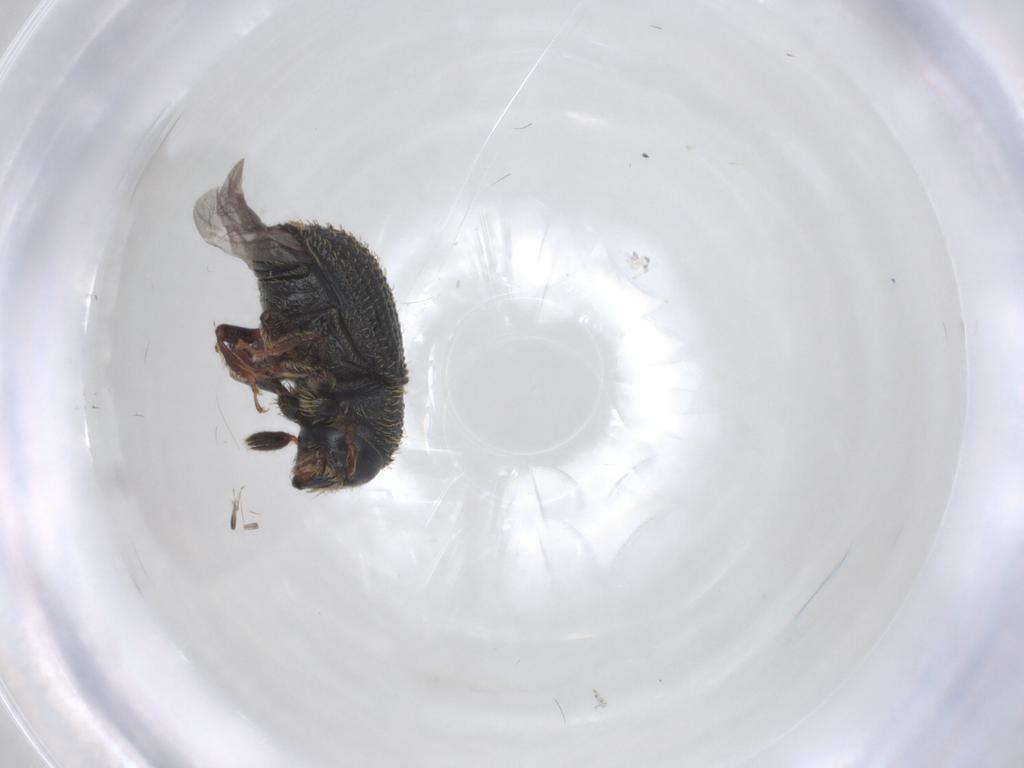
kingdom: Animalia
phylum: Arthropoda
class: Insecta
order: Coleoptera
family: Curculionidae
